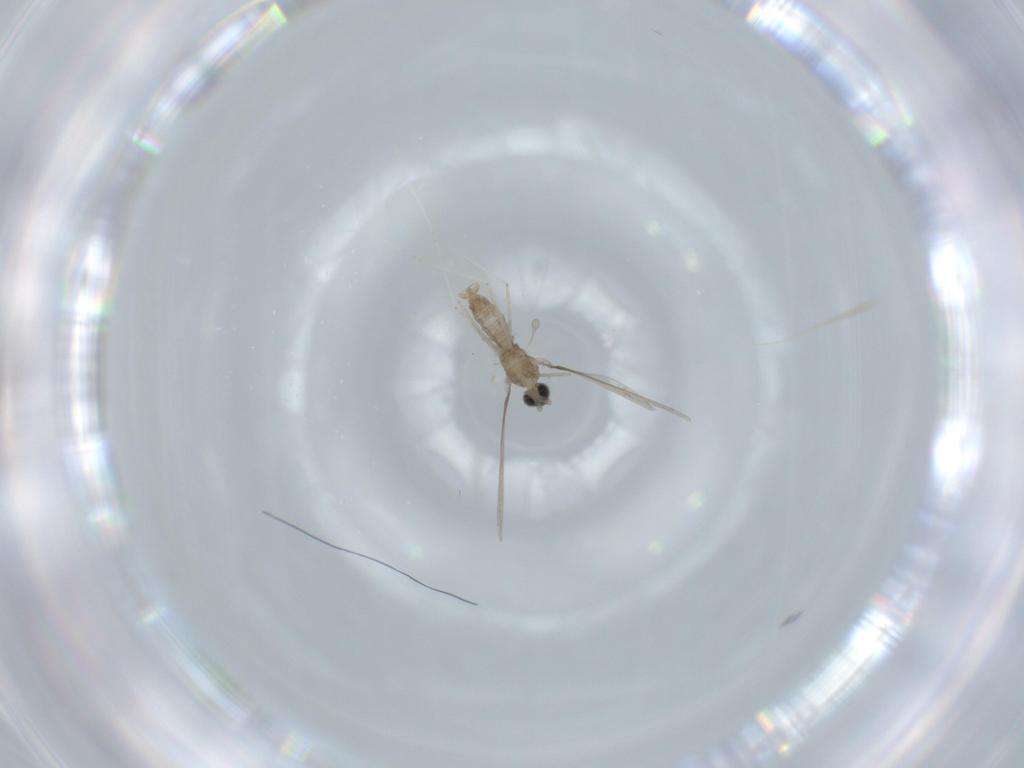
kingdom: Animalia
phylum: Arthropoda
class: Insecta
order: Diptera
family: Cecidomyiidae
